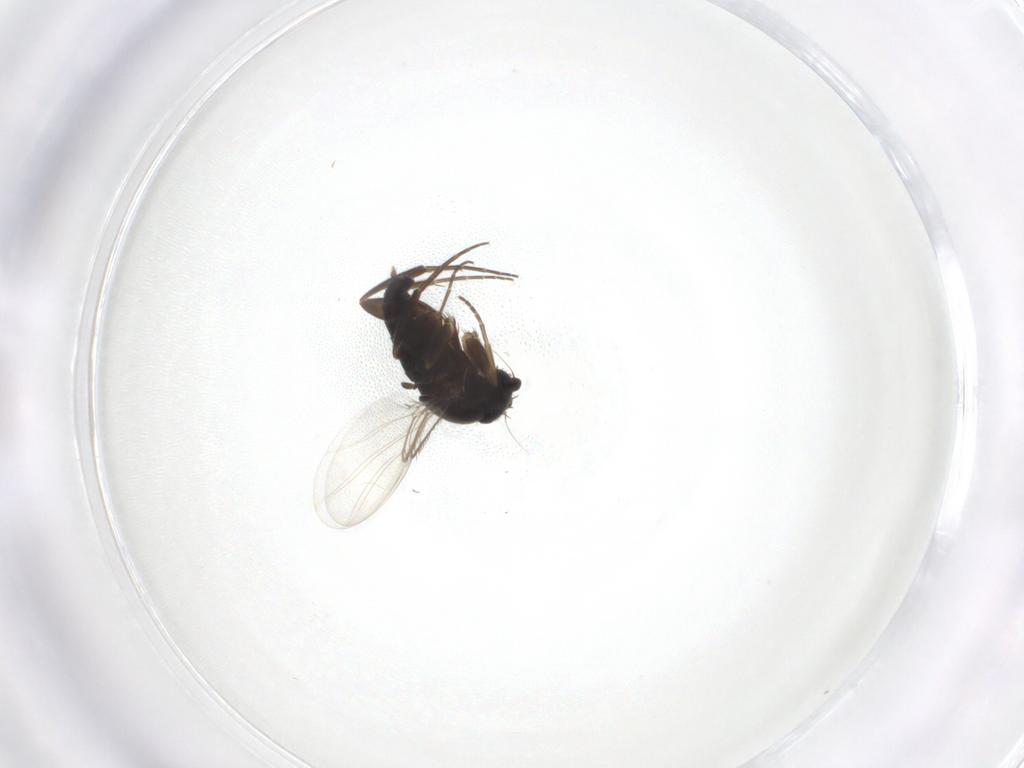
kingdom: Animalia
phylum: Arthropoda
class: Insecta
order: Diptera
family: Phoridae
